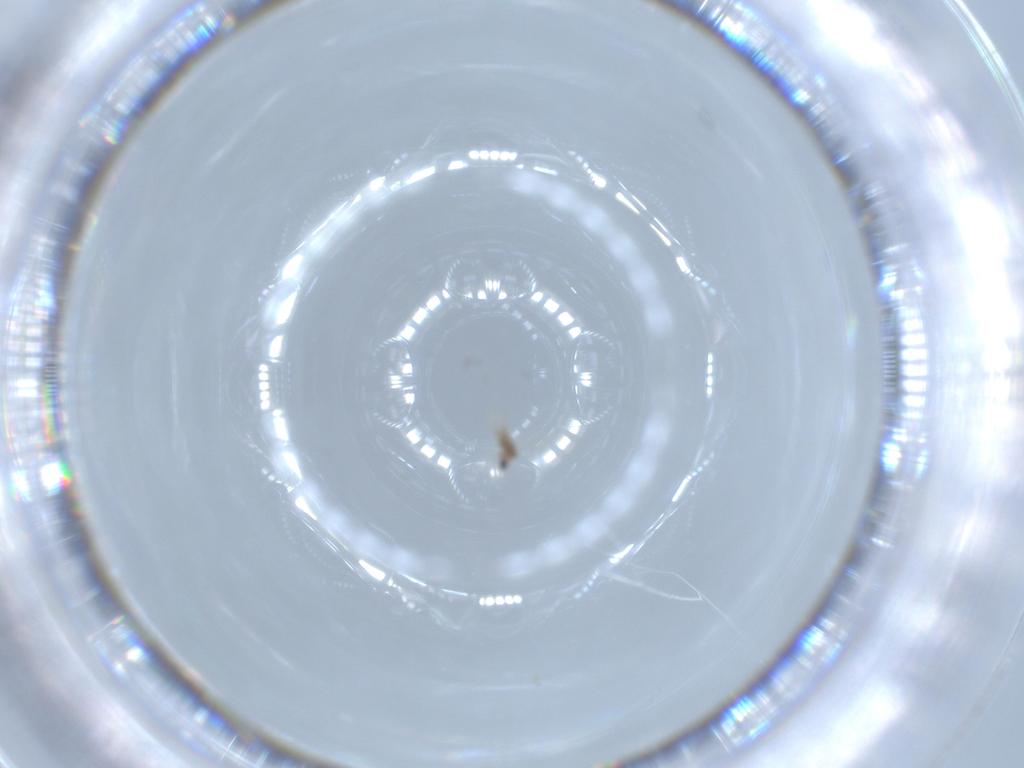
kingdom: Animalia
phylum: Arthropoda
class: Insecta
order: Hemiptera
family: Diaspididae
